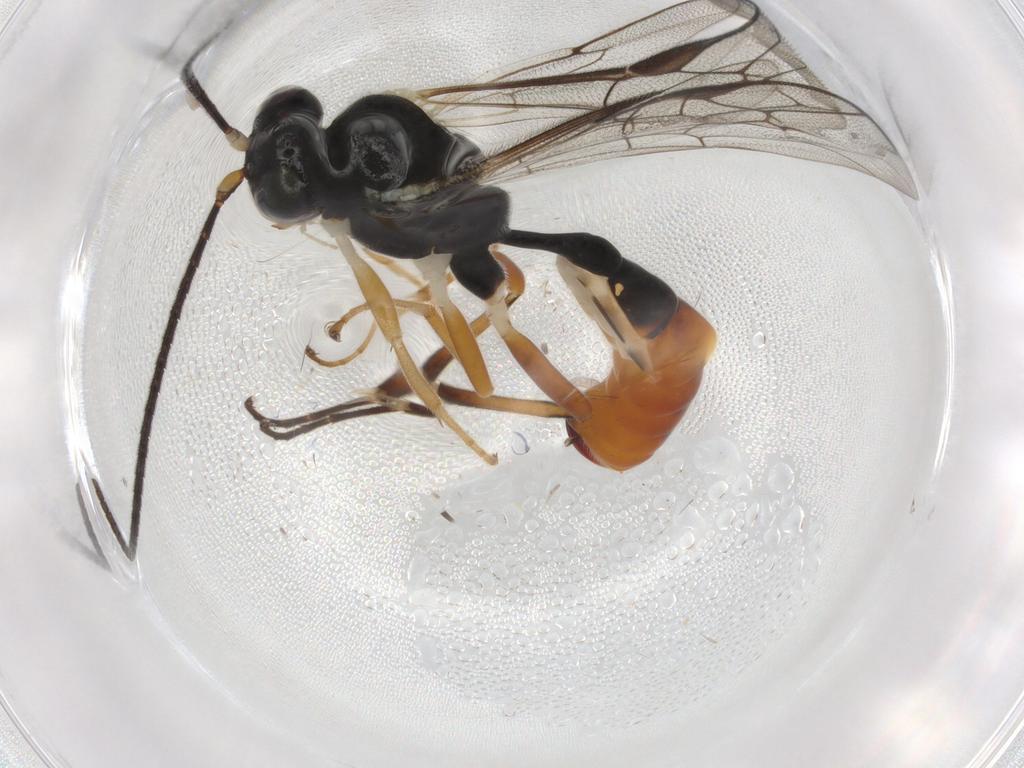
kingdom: Animalia
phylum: Arthropoda
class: Insecta
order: Hymenoptera
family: Ichneumonidae
